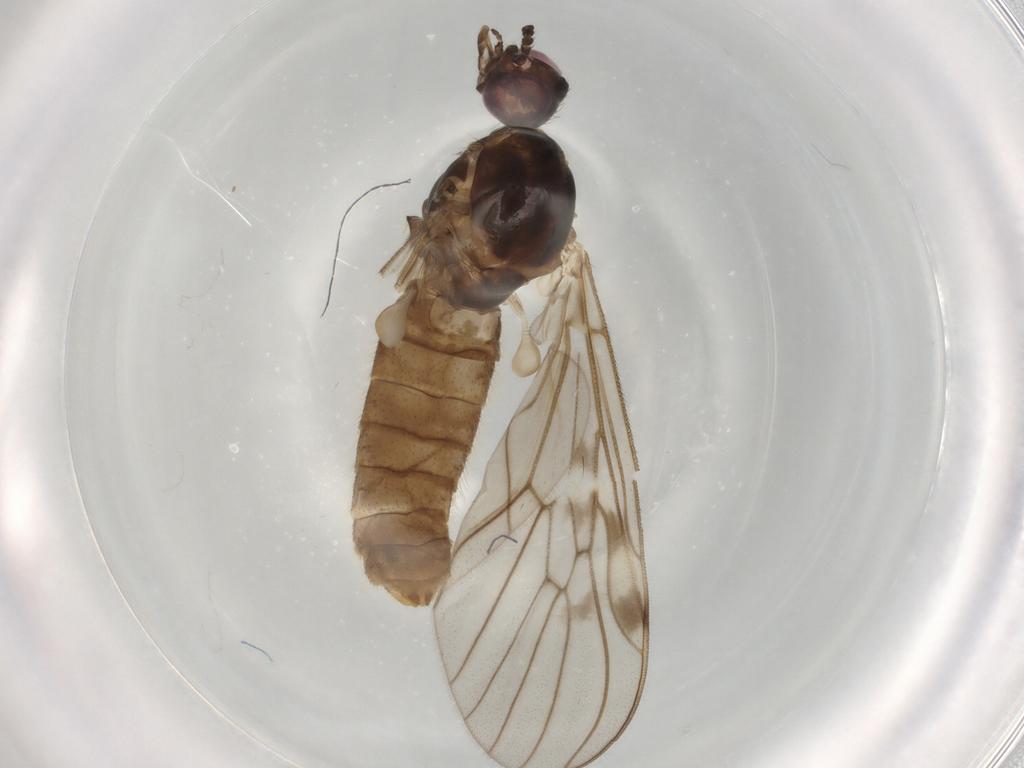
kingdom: Animalia
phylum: Arthropoda
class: Insecta
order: Diptera
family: Anisopodidae
